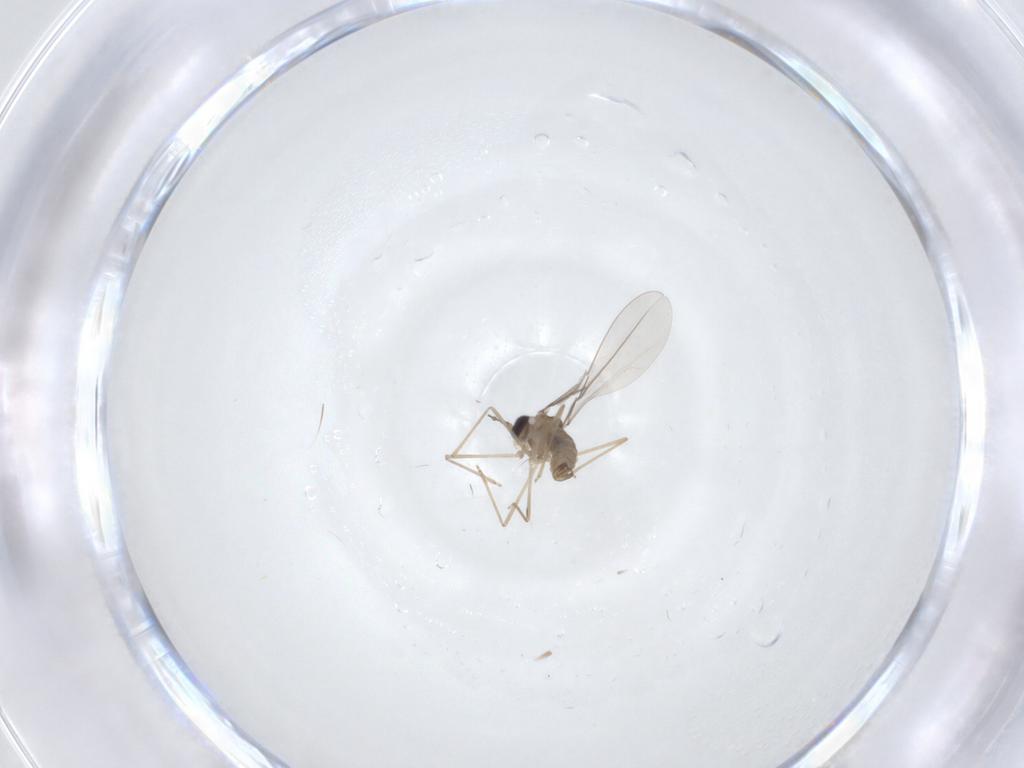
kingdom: Animalia
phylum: Arthropoda
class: Insecta
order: Diptera
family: Cecidomyiidae
